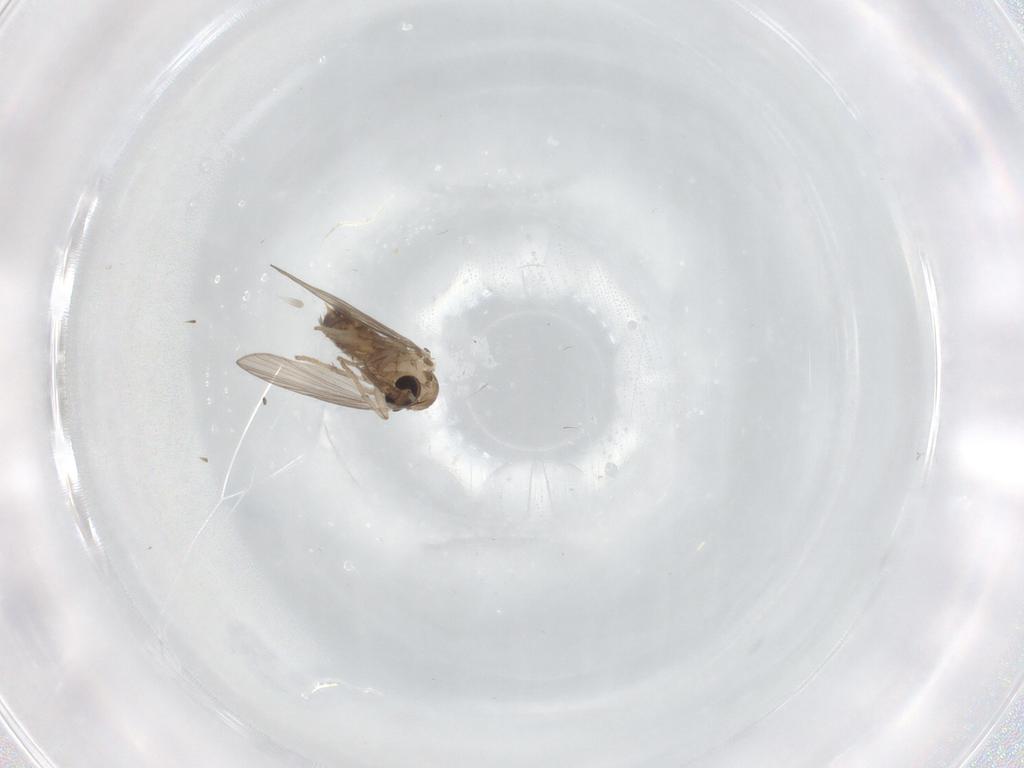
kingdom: Animalia
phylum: Arthropoda
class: Insecta
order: Diptera
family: Psychodidae
